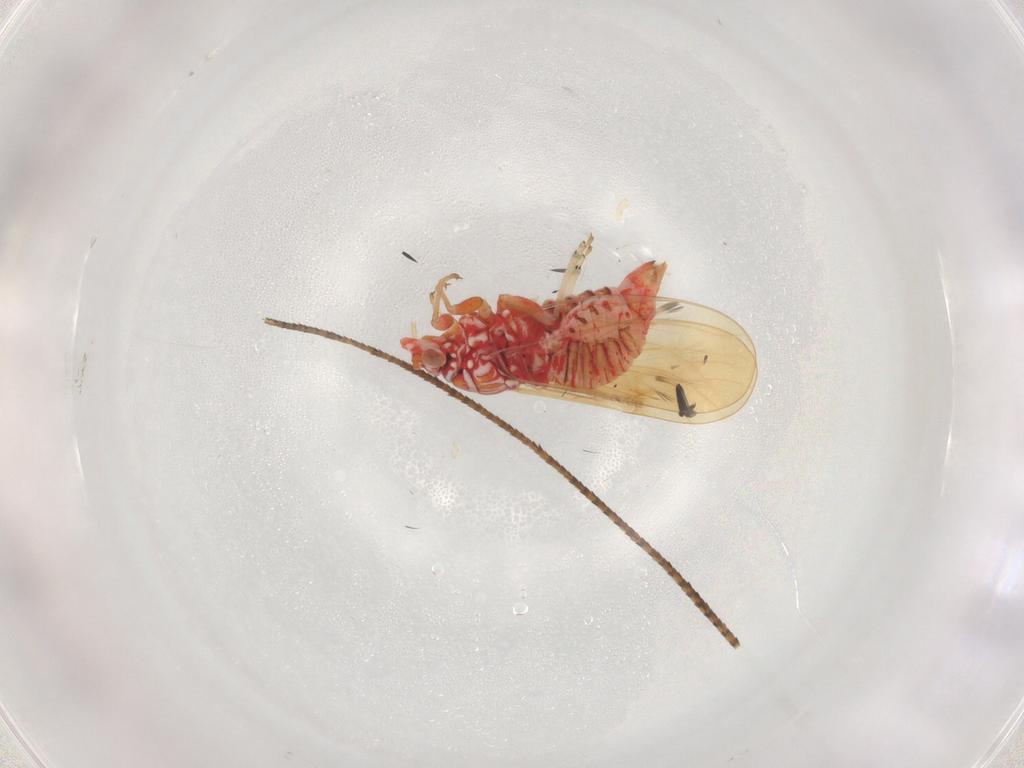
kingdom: Animalia
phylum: Arthropoda
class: Insecta
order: Hemiptera
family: Psyllidae
